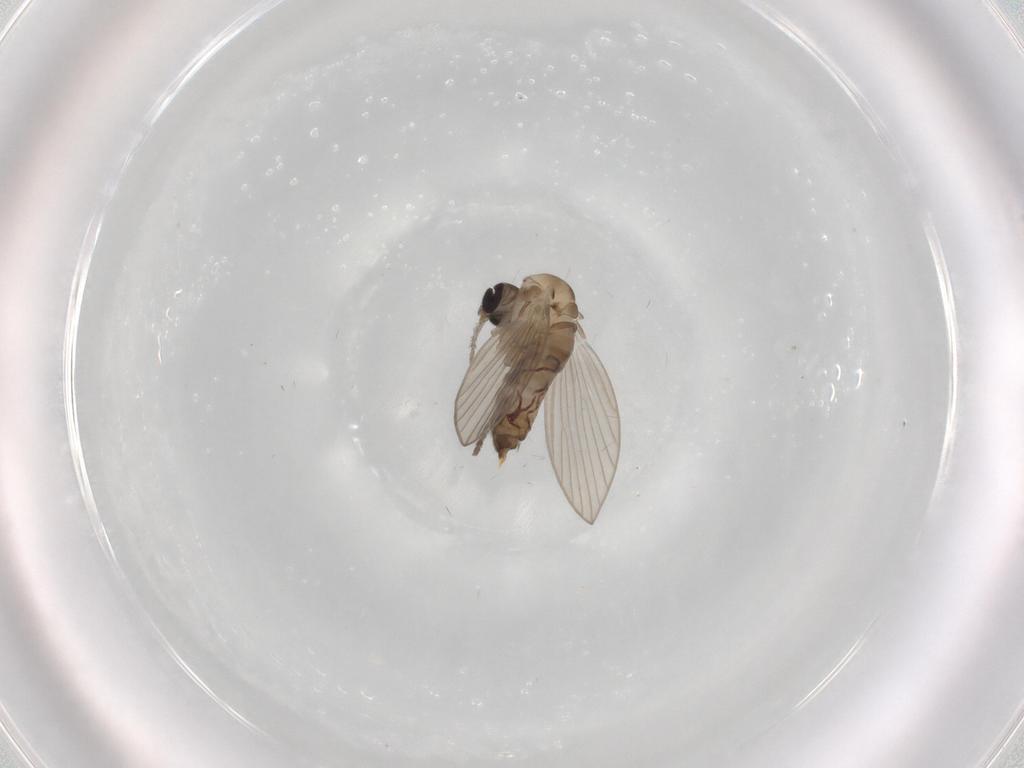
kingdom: Animalia
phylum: Arthropoda
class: Insecta
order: Diptera
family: Psychodidae
